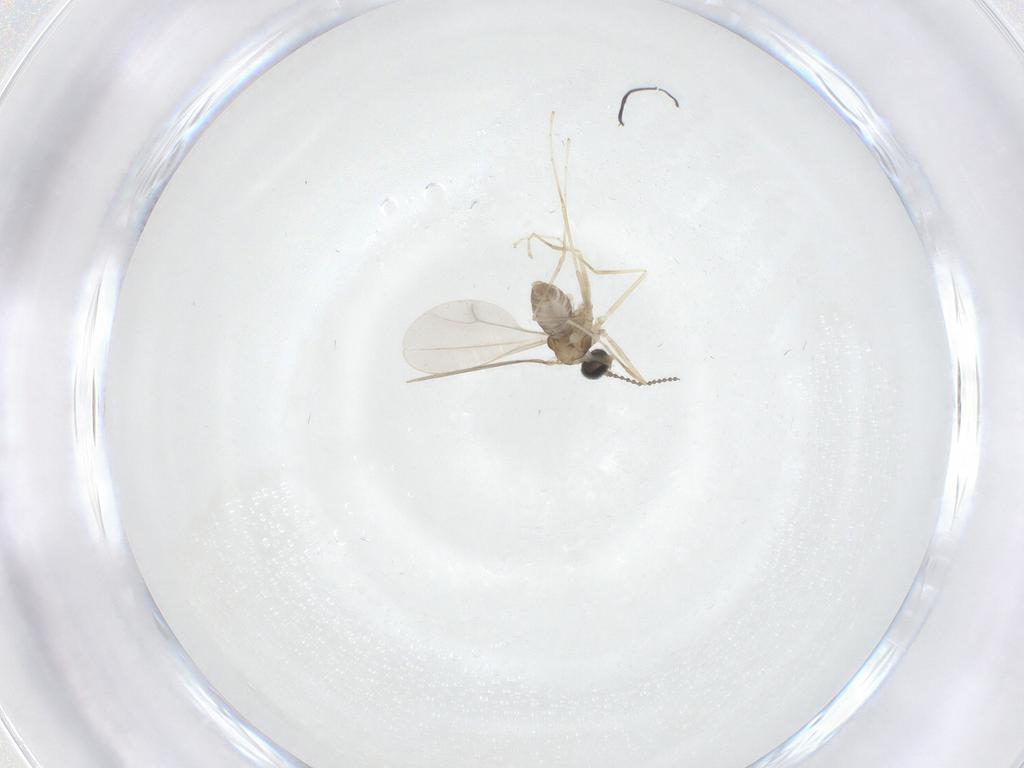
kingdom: Animalia
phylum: Arthropoda
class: Insecta
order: Diptera
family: Cecidomyiidae
